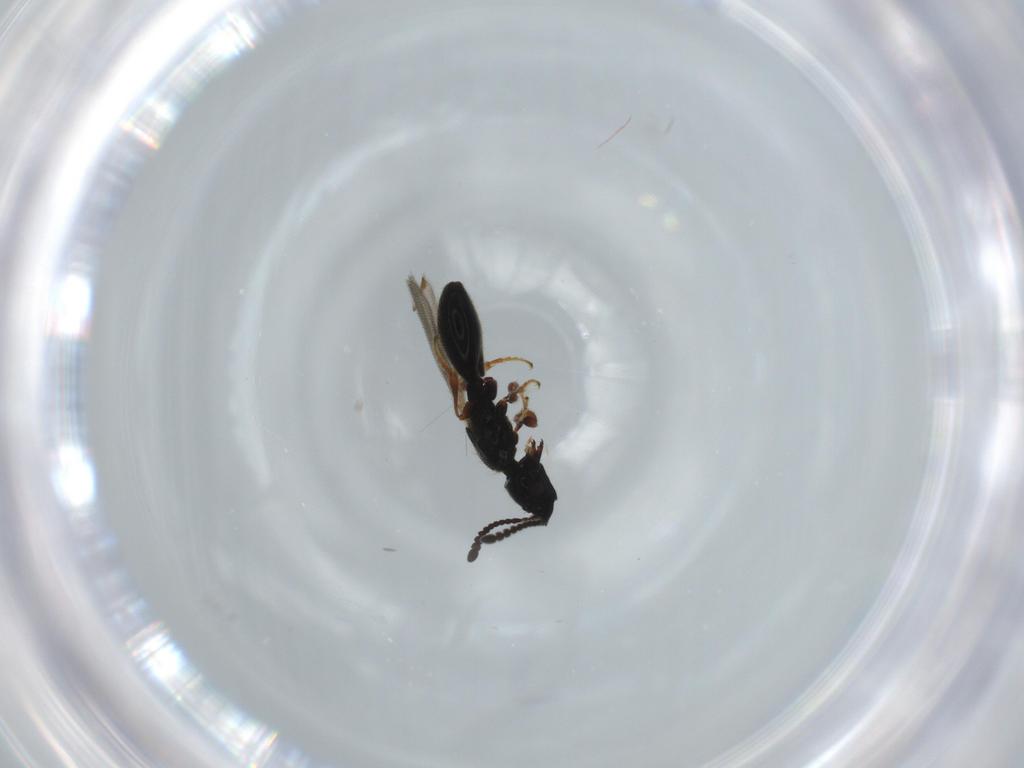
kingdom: Animalia
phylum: Arthropoda
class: Insecta
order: Hymenoptera
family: Diapriidae
